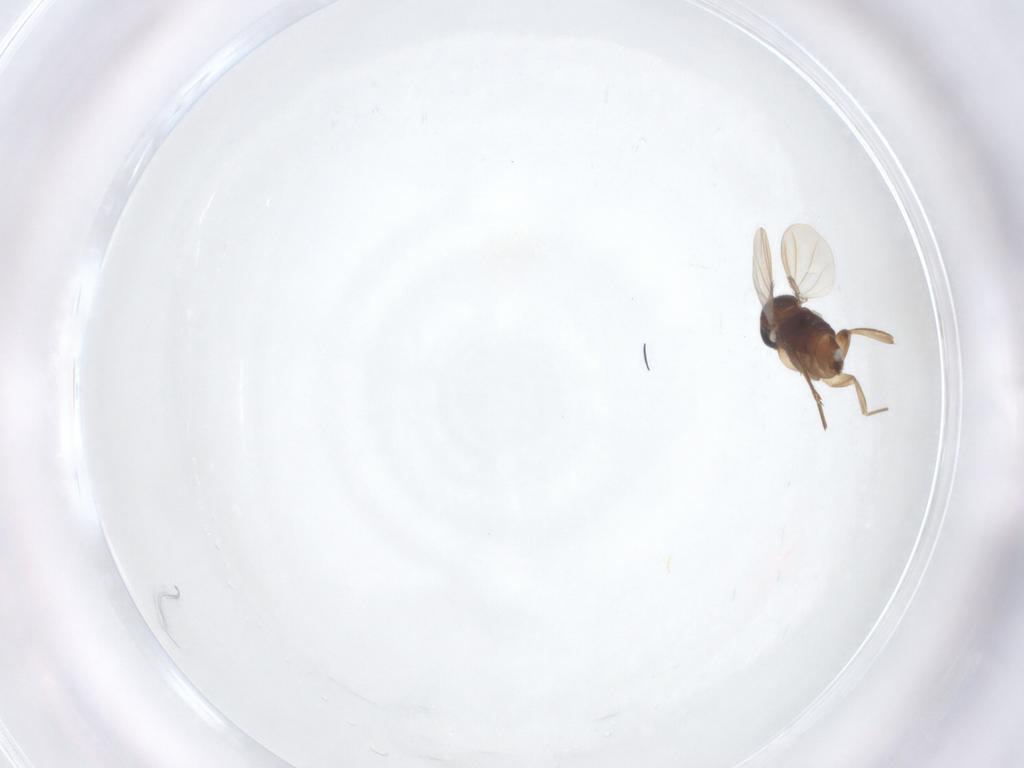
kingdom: Animalia
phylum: Arthropoda
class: Insecta
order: Diptera
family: Phoridae
